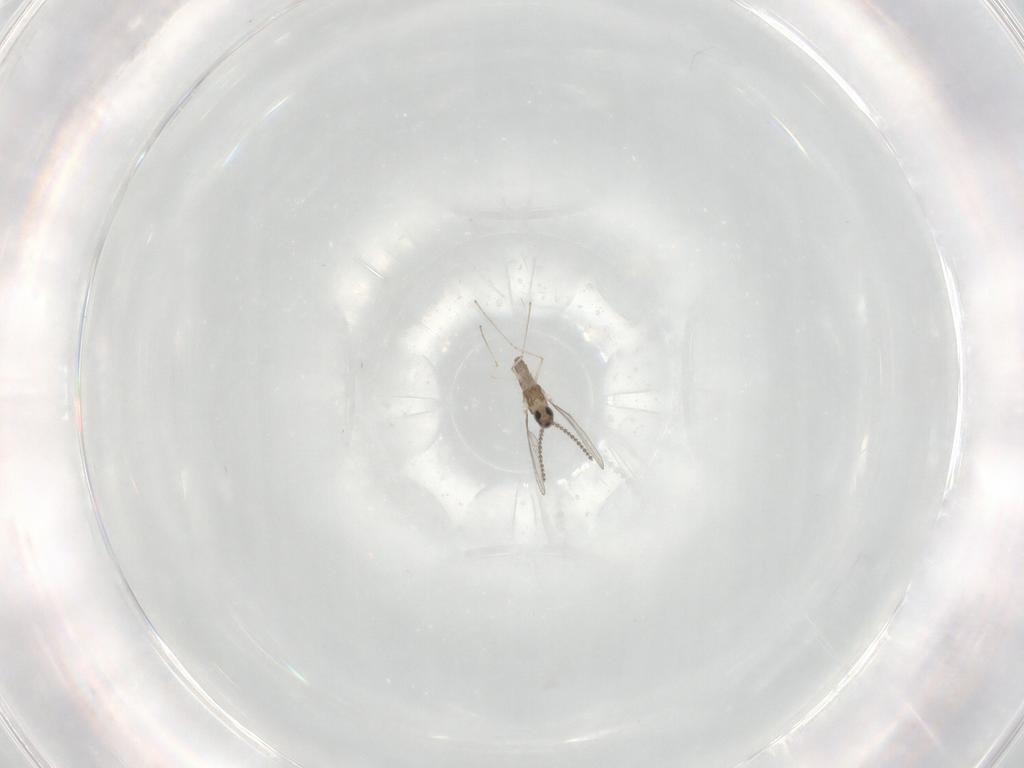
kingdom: Animalia
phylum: Arthropoda
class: Insecta
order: Diptera
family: Cecidomyiidae
